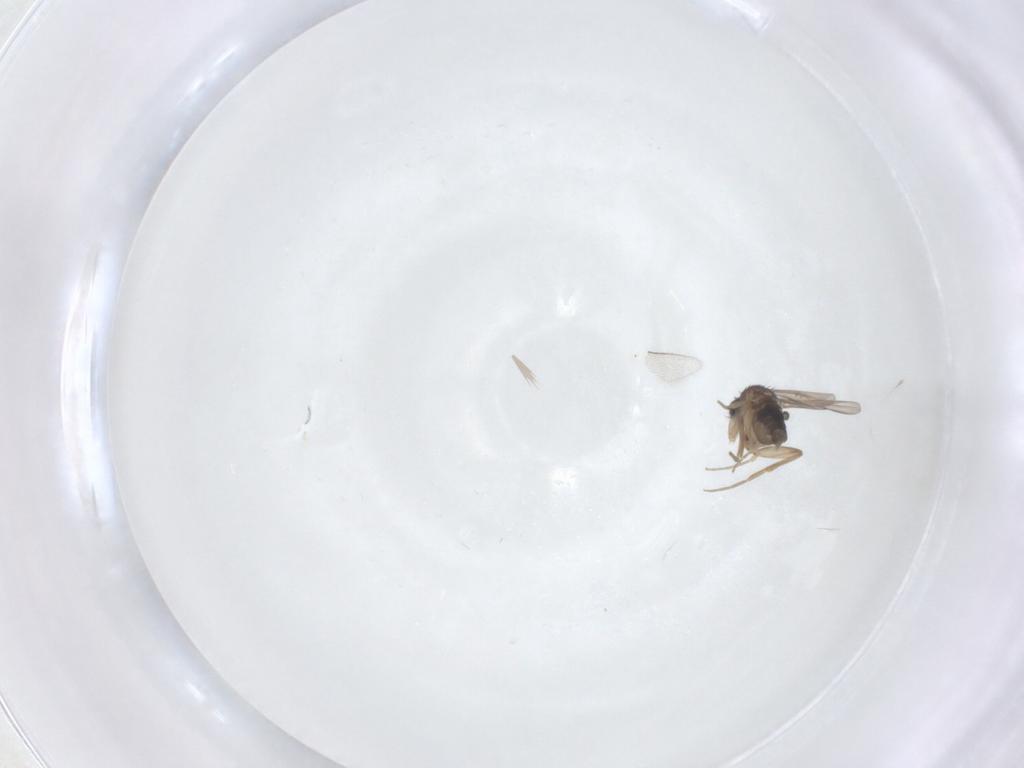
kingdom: Animalia
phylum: Arthropoda
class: Insecta
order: Diptera
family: Phoridae
